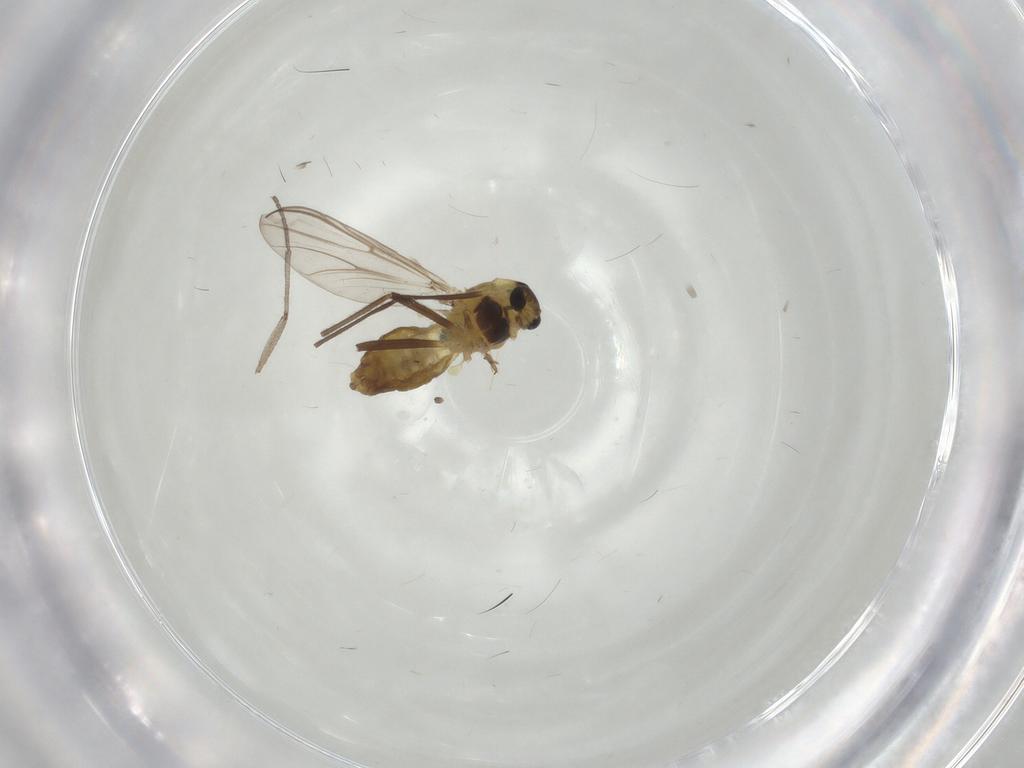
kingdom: Animalia
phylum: Arthropoda
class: Insecta
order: Diptera
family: Chironomidae
